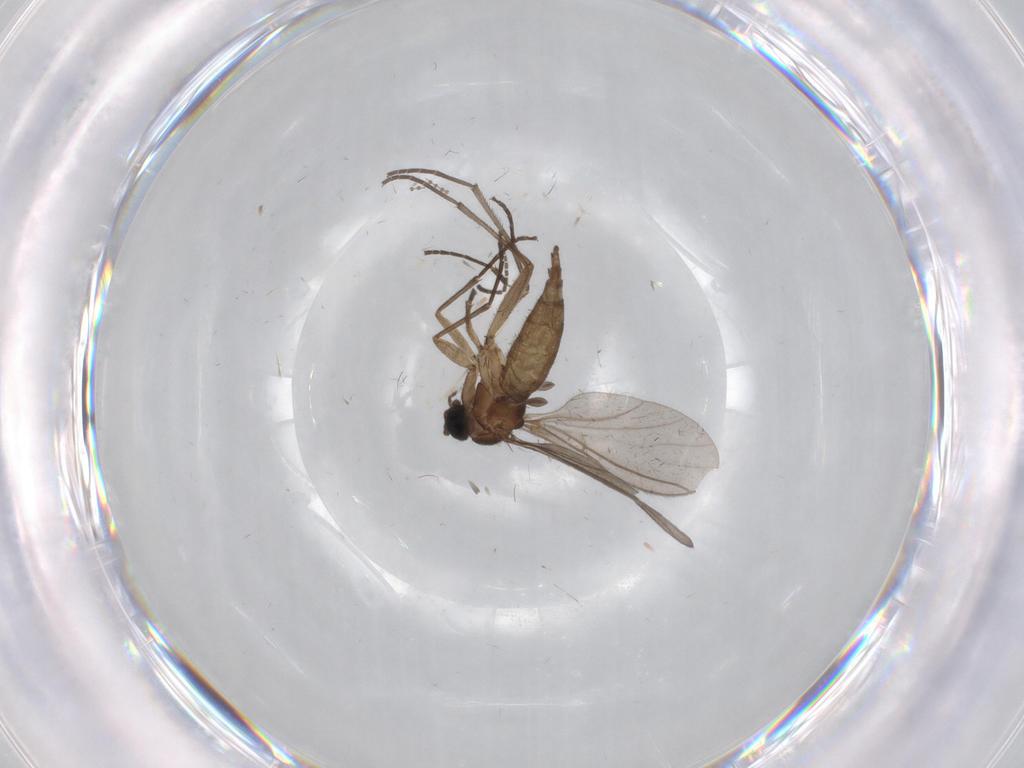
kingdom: Animalia
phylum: Arthropoda
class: Insecta
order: Diptera
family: Sciaridae
